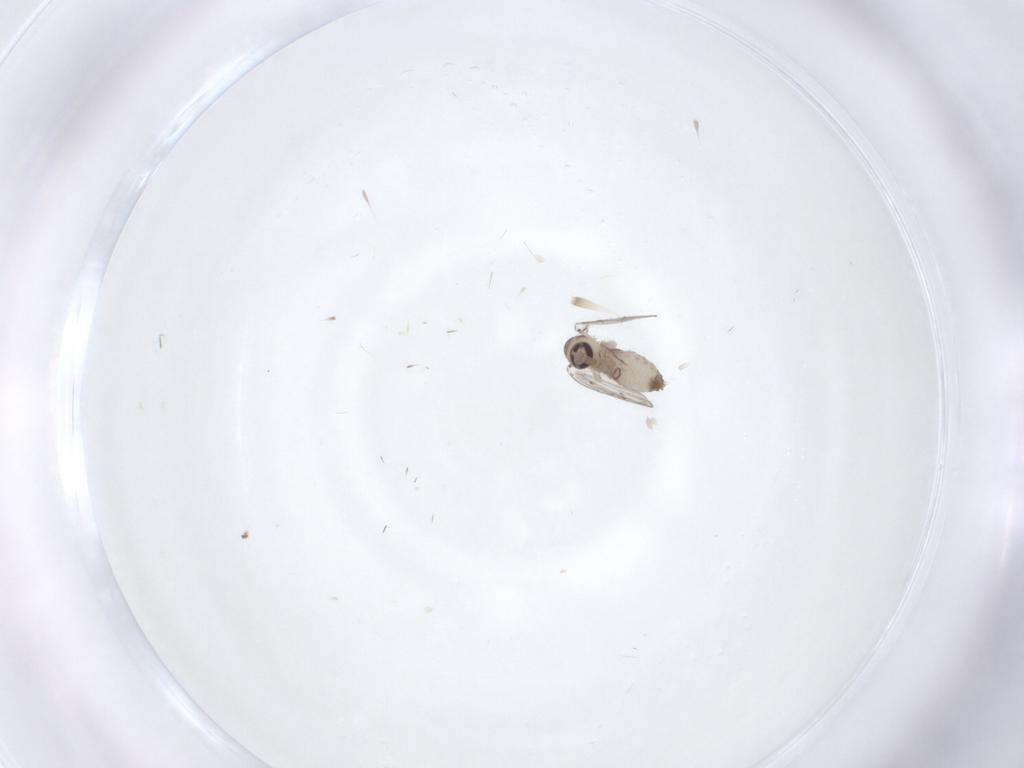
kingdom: Animalia
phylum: Arthropoda
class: Insecta
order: Diptera
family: Psychodidae
